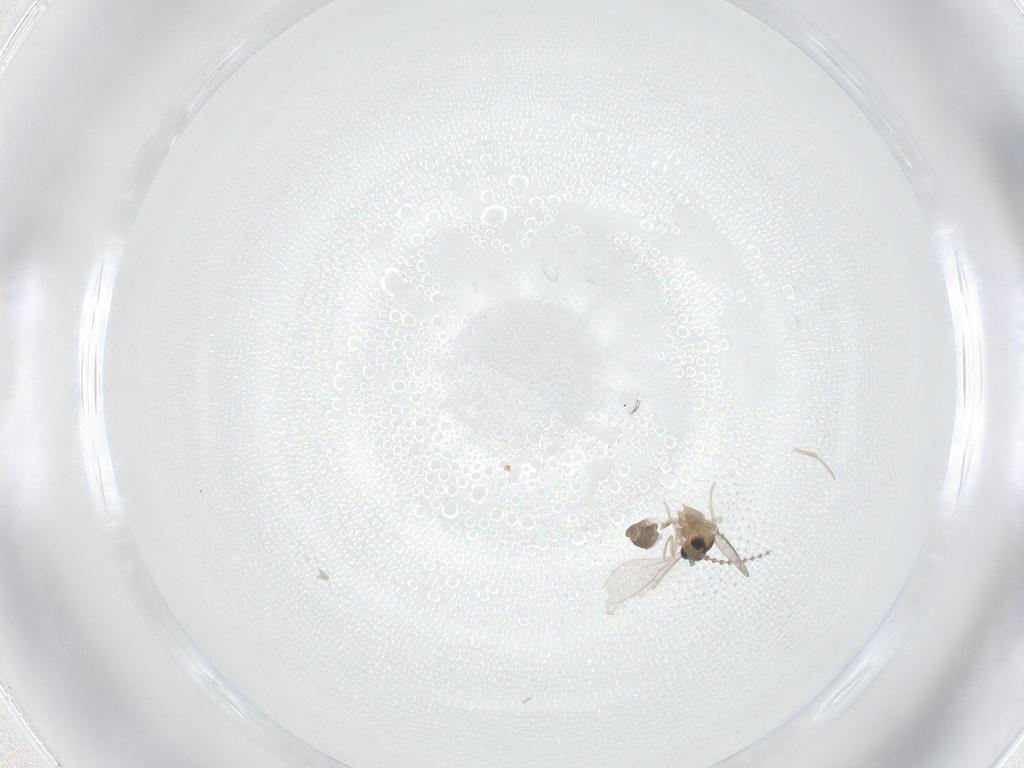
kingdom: Animalia
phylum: Arthropoda
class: Insecta
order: Diptera
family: Cecidomyiidae
